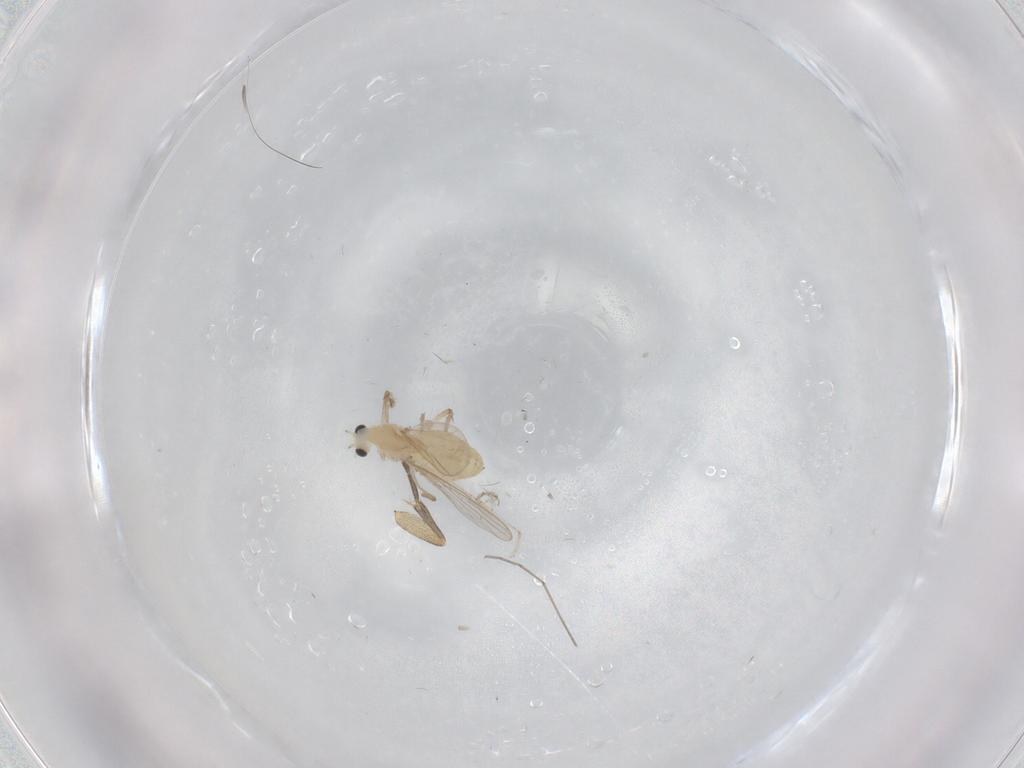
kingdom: Animalia
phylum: Arthropoda
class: Insecta
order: Diptera
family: Chironomidae
